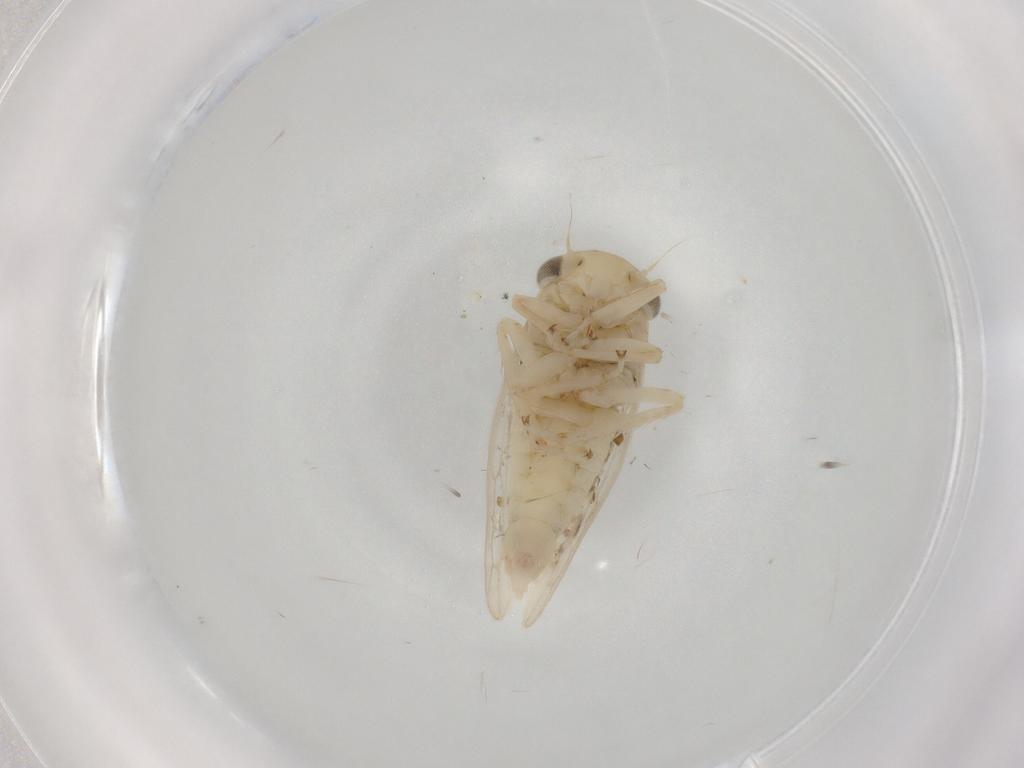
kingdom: Animalia
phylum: Arthropoda
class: Insecta
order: Hemiptera
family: Cicadellidae
